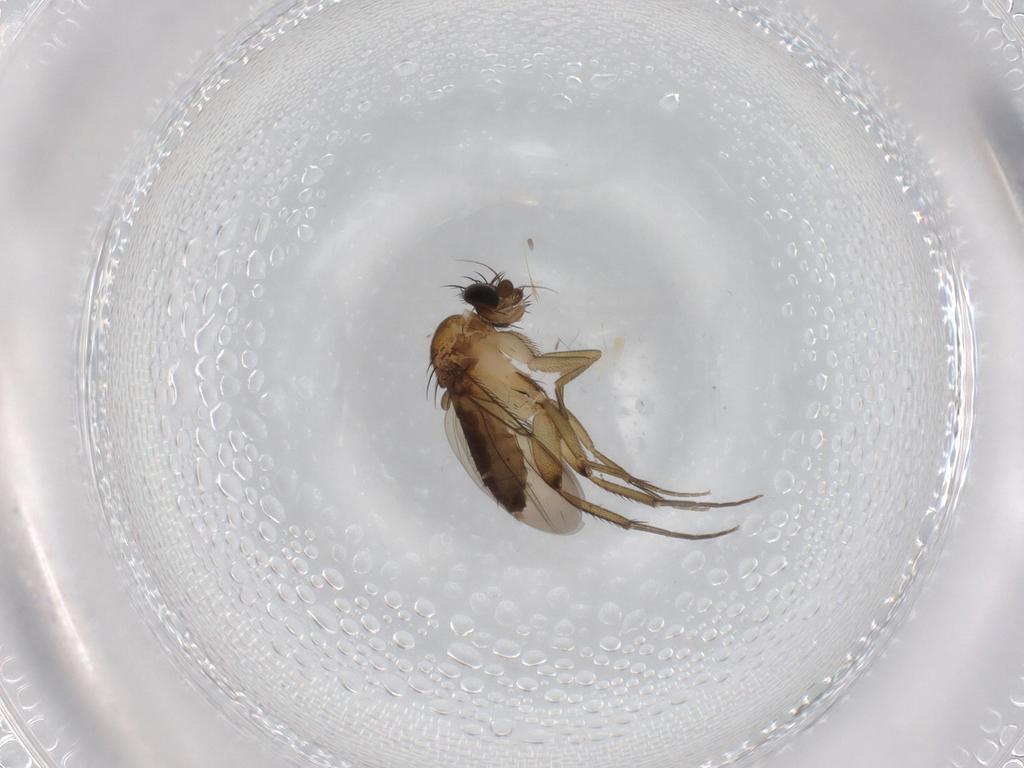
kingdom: Animalia
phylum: Arthropoda
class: Insecta
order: Diptera
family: Phoridae
